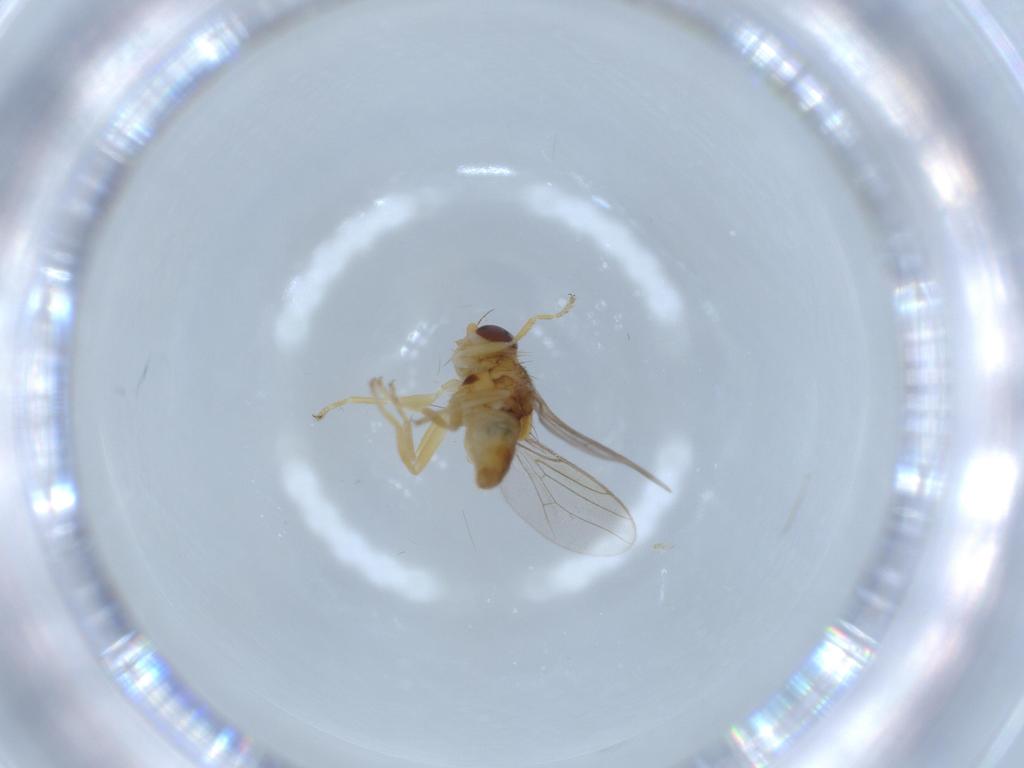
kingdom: Animalia
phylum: Arthropoda
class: Insecta
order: Diptera
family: Chloropidae
